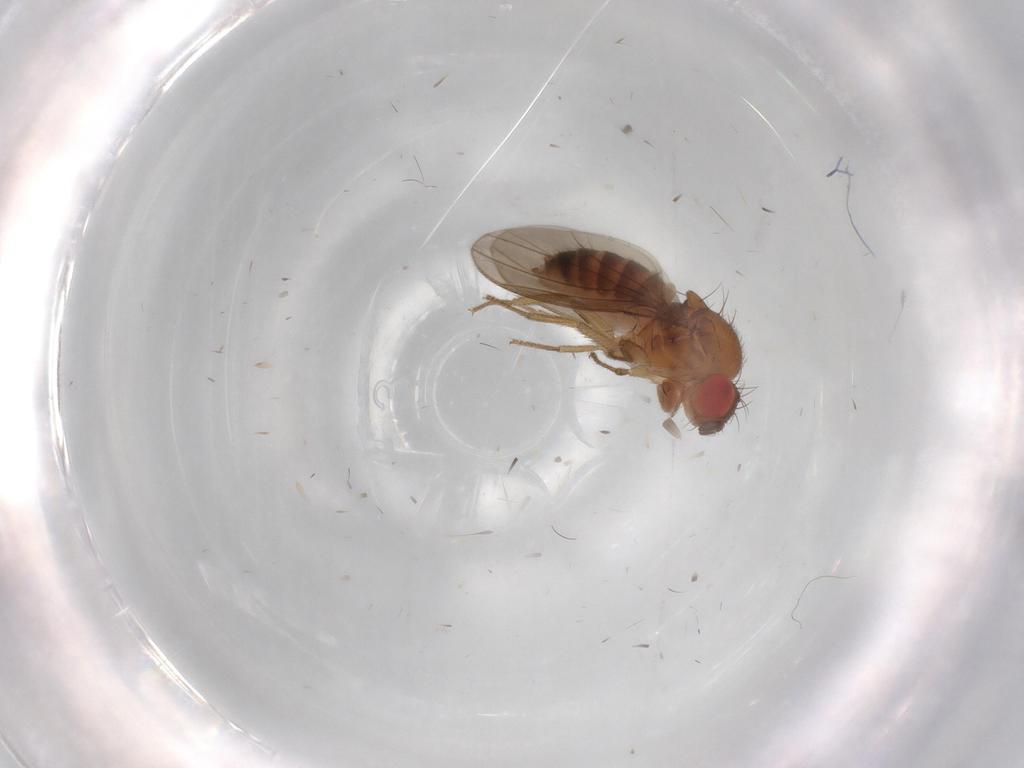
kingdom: Animalia
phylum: Arthropoda
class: Insecta
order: Diptera
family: Drosophilidae
